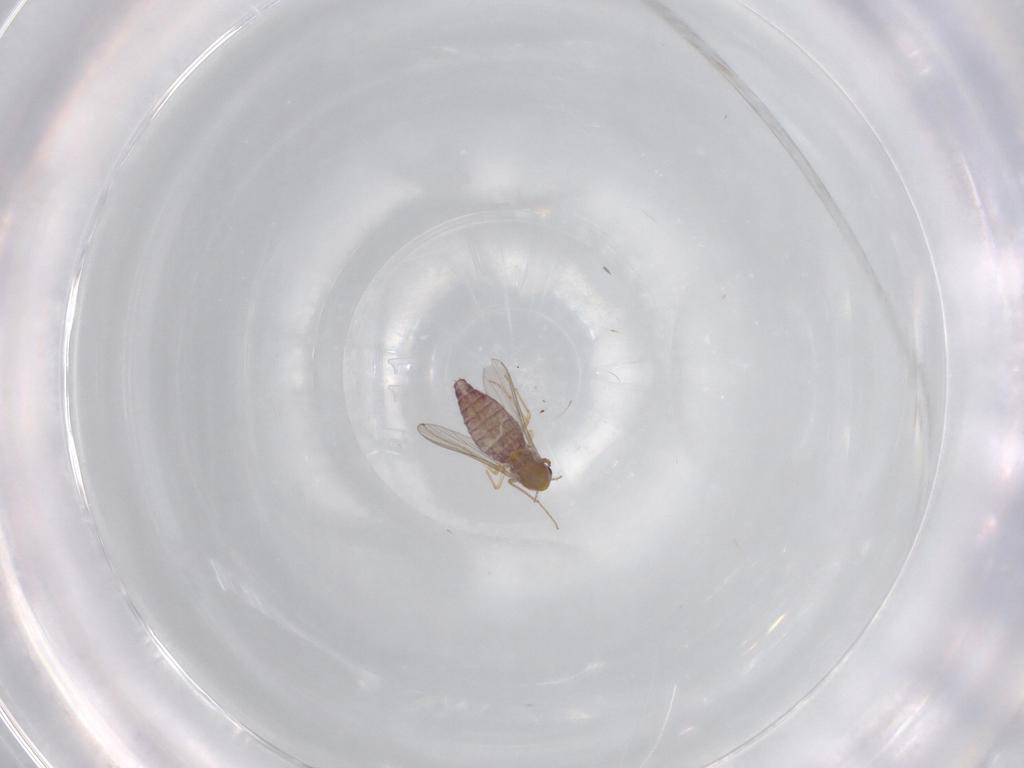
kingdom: Animalia
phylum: Arthropoda
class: Insecta
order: Diptera
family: Chironomidae
